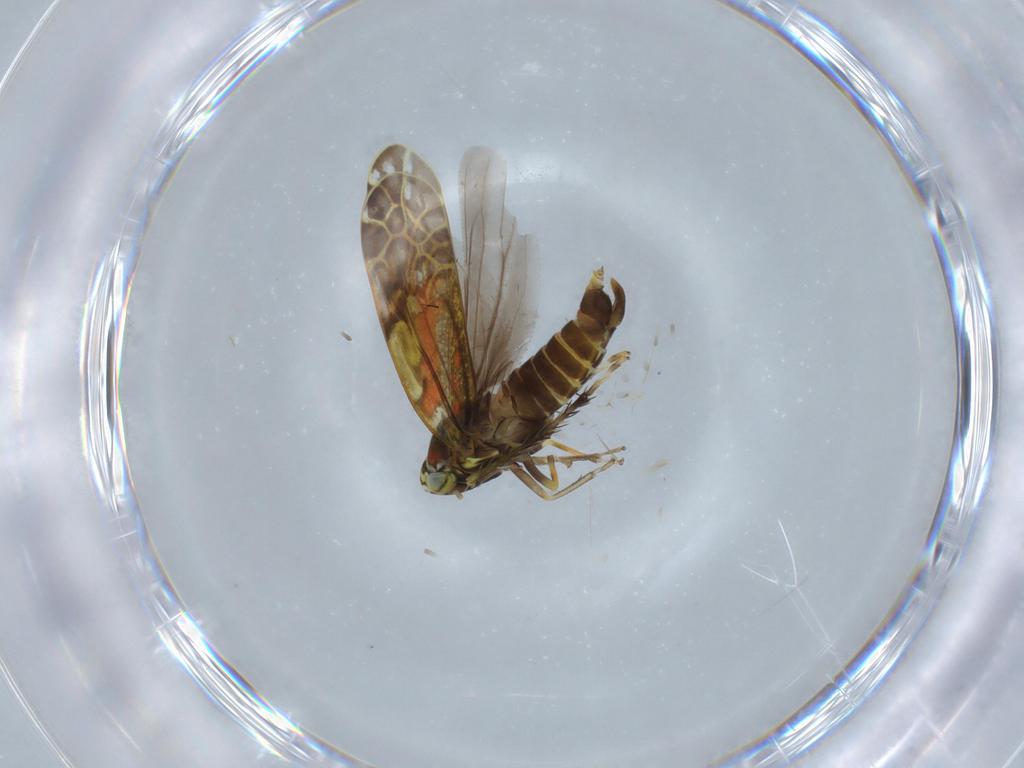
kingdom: Animalia
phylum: Arthropoda
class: Insecta
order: Hemiptera
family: Cicadellidae
